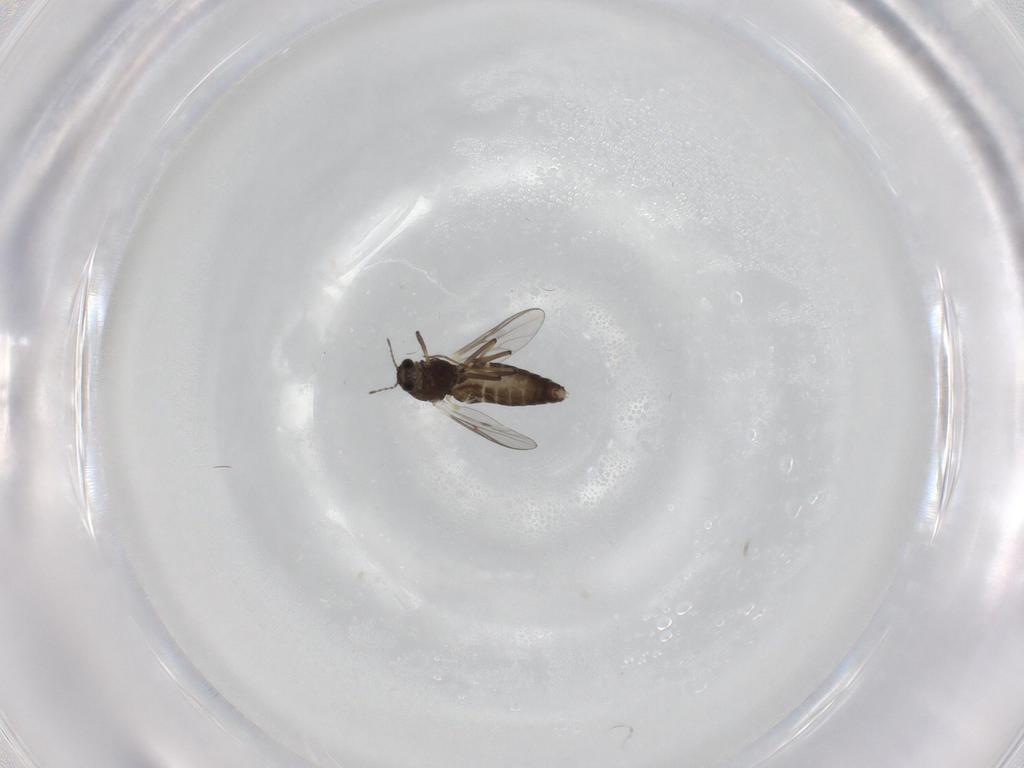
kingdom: Animalia
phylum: Arthropoda
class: Insecta
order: Diptera
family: Chironomidae
